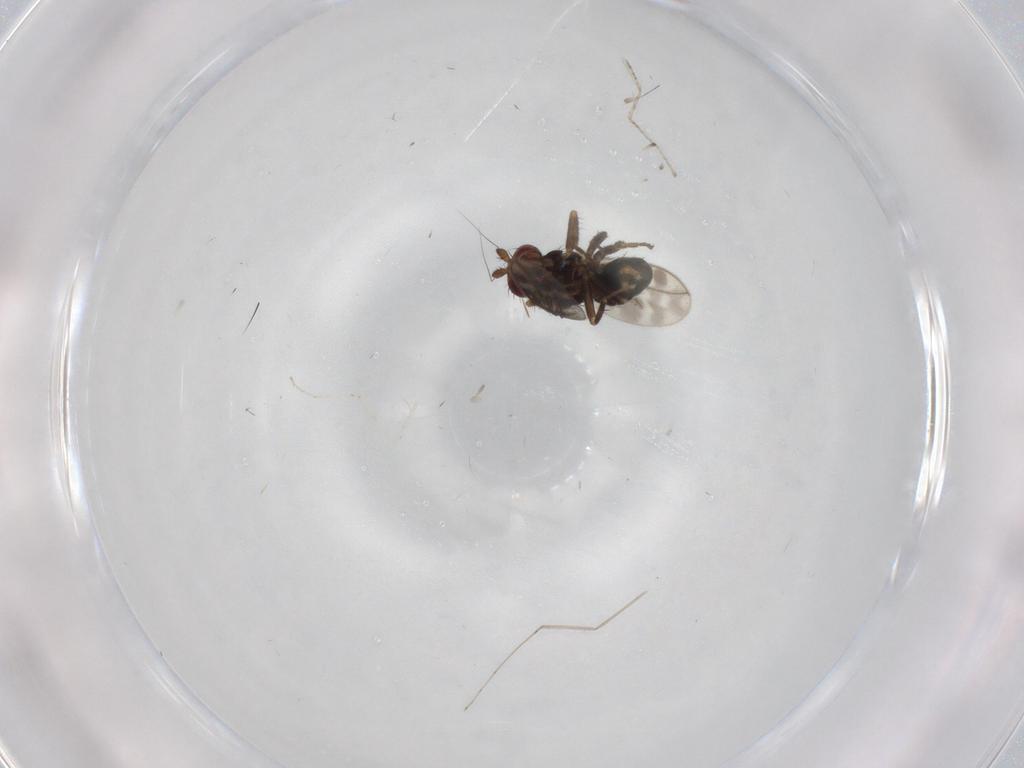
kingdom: Animalia
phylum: Arthropoda
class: Insecta
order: Diptera
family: Sphaeroceridae
